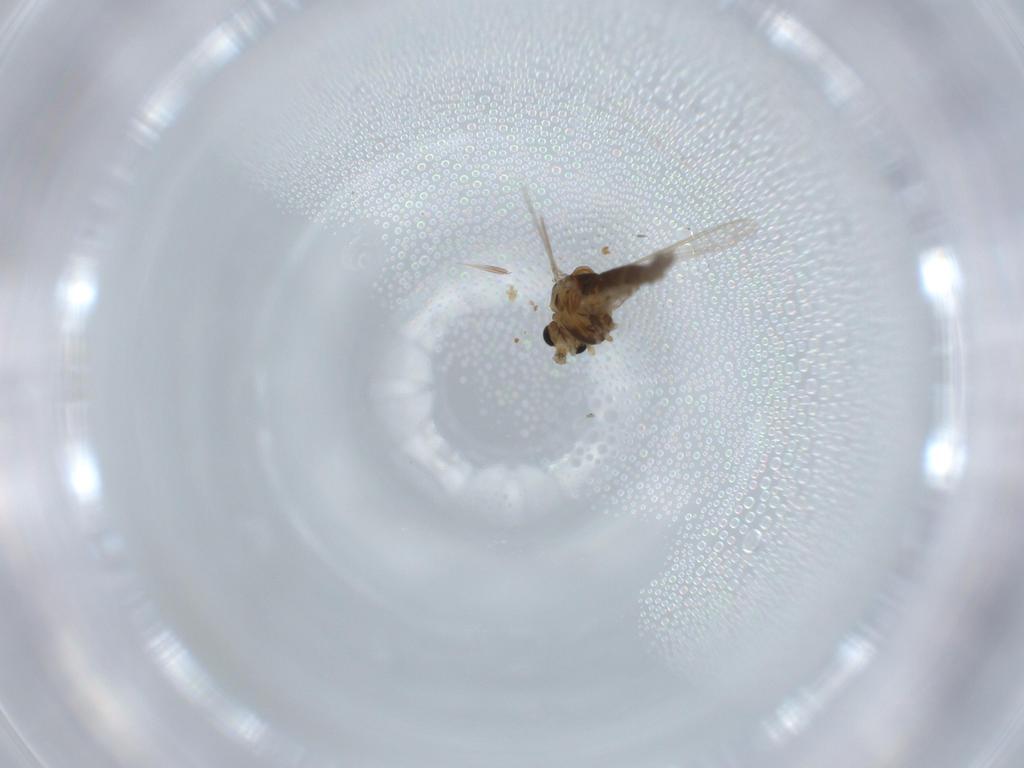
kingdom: Animalia
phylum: Arthropoda
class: Insecta
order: Diptera
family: Chironomidae
